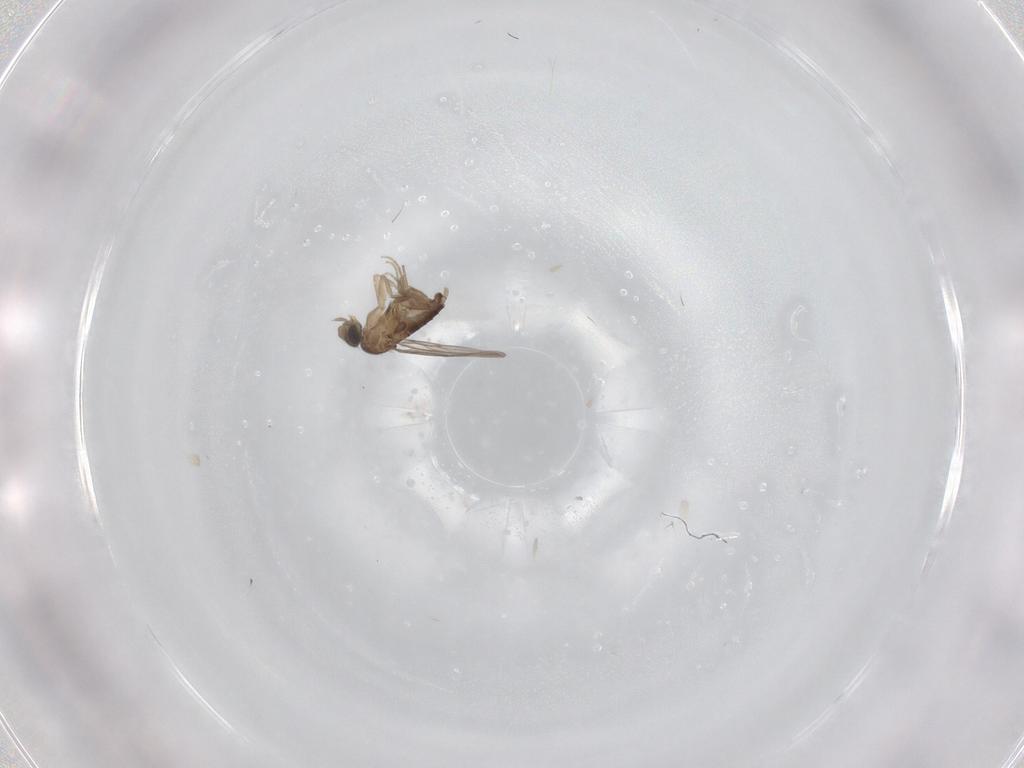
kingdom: Animalia
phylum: Arthropoda
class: Insecta
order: Diptera
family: Phoridae
